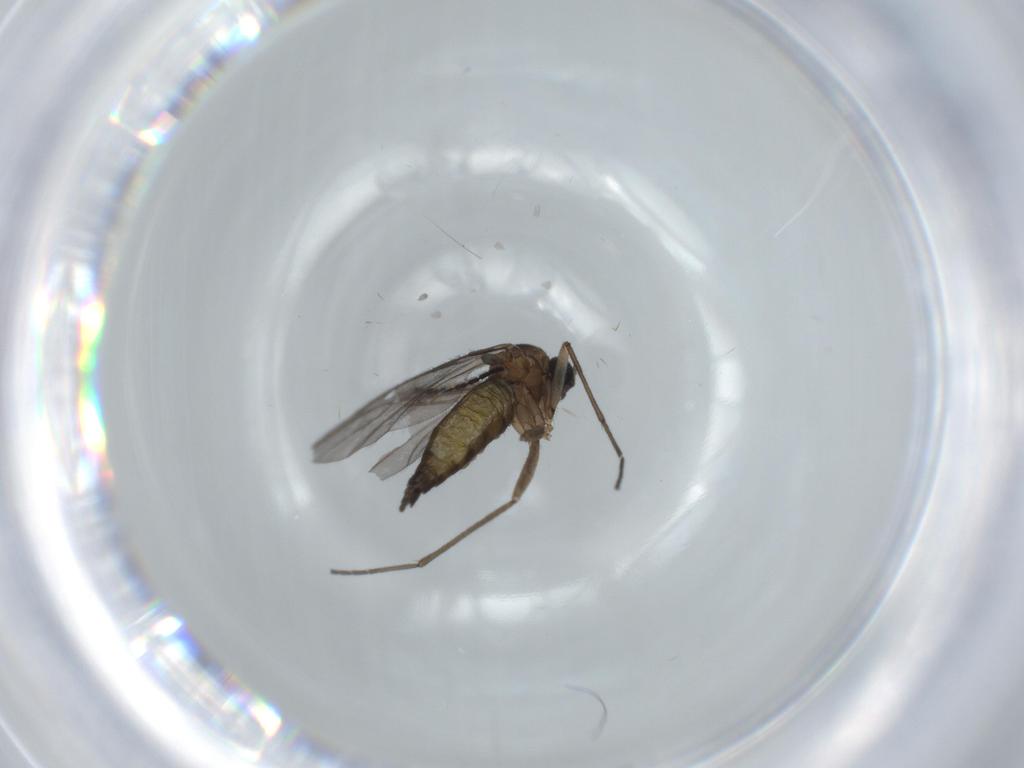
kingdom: Animalia
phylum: Arthropoda
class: Insecta
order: Diptera
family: Sciaridae
